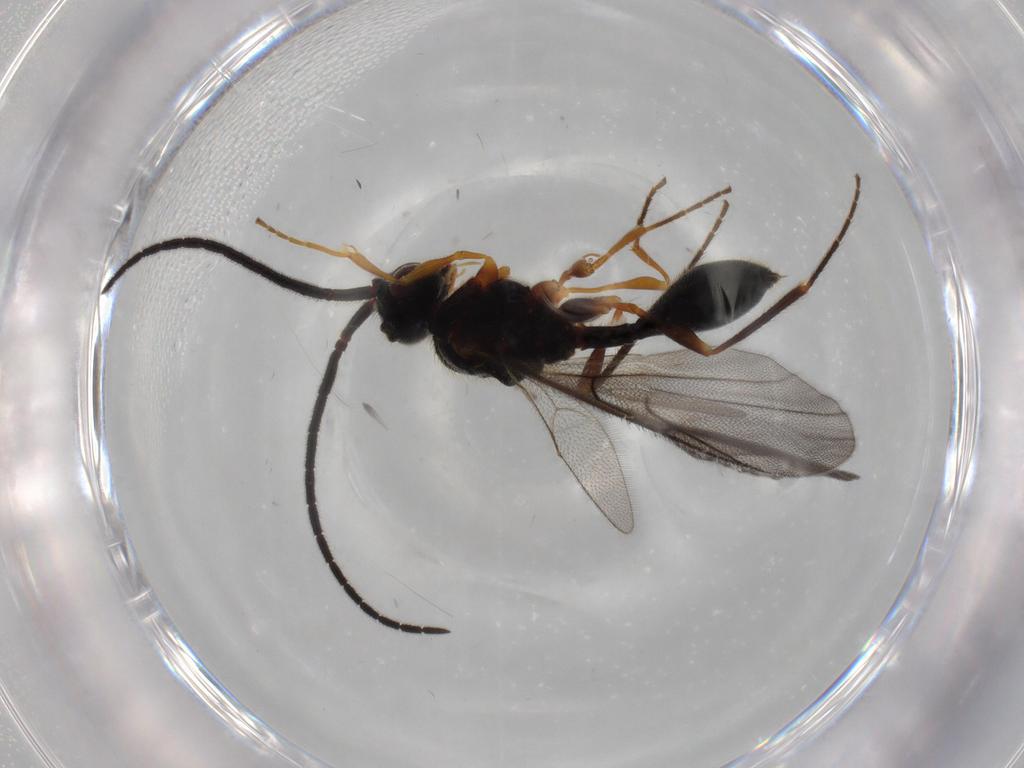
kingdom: Animalia
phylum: Arthropoda
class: Insecta
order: Hymenoptera
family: Diapriidae
